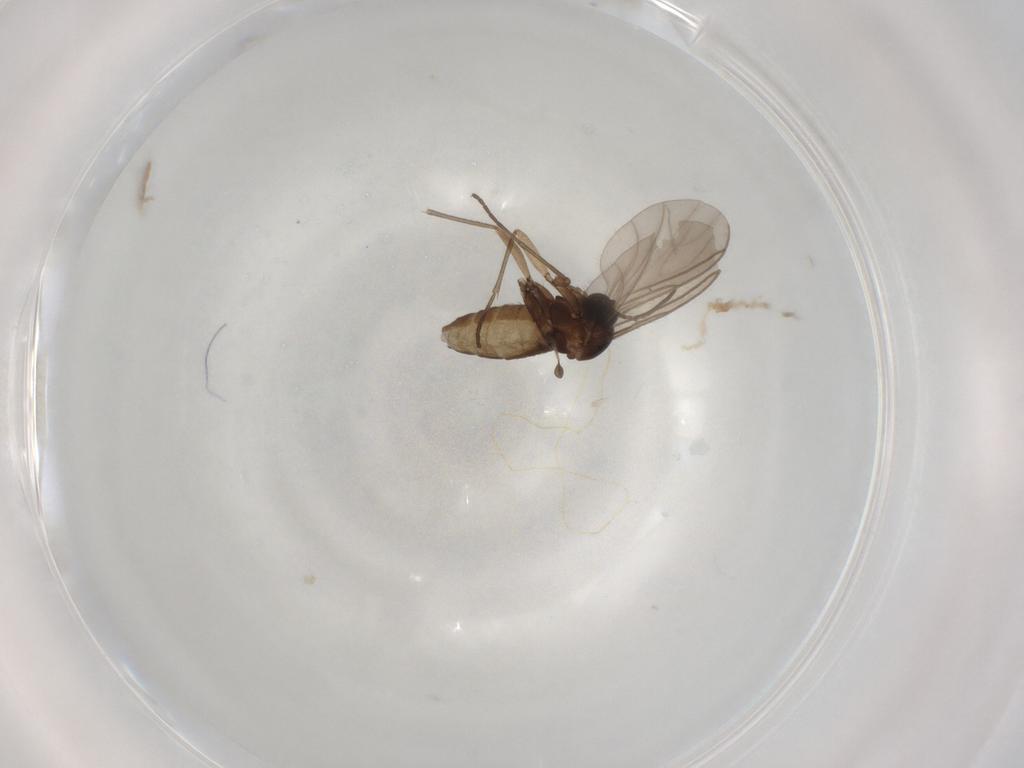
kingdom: Animalia
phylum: Arthropoda
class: Insecta
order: Diptera
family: Sciaridae
